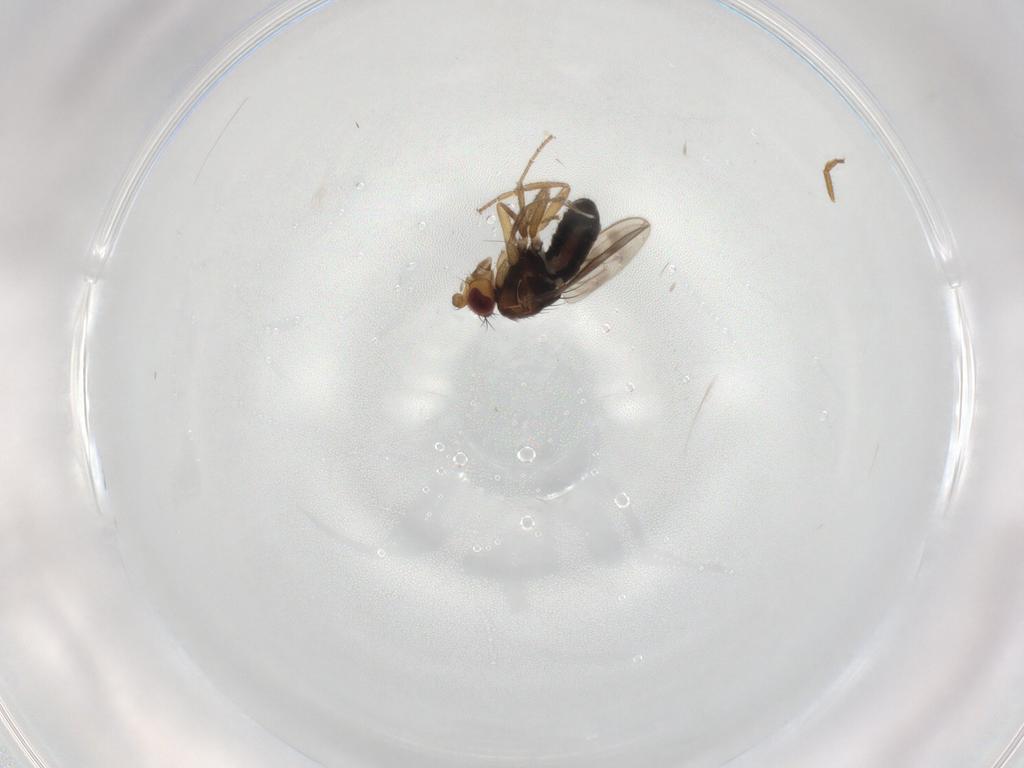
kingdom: Animalia
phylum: Arthropoda
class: Insecta
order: Diptera
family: Sphaeroceridae
